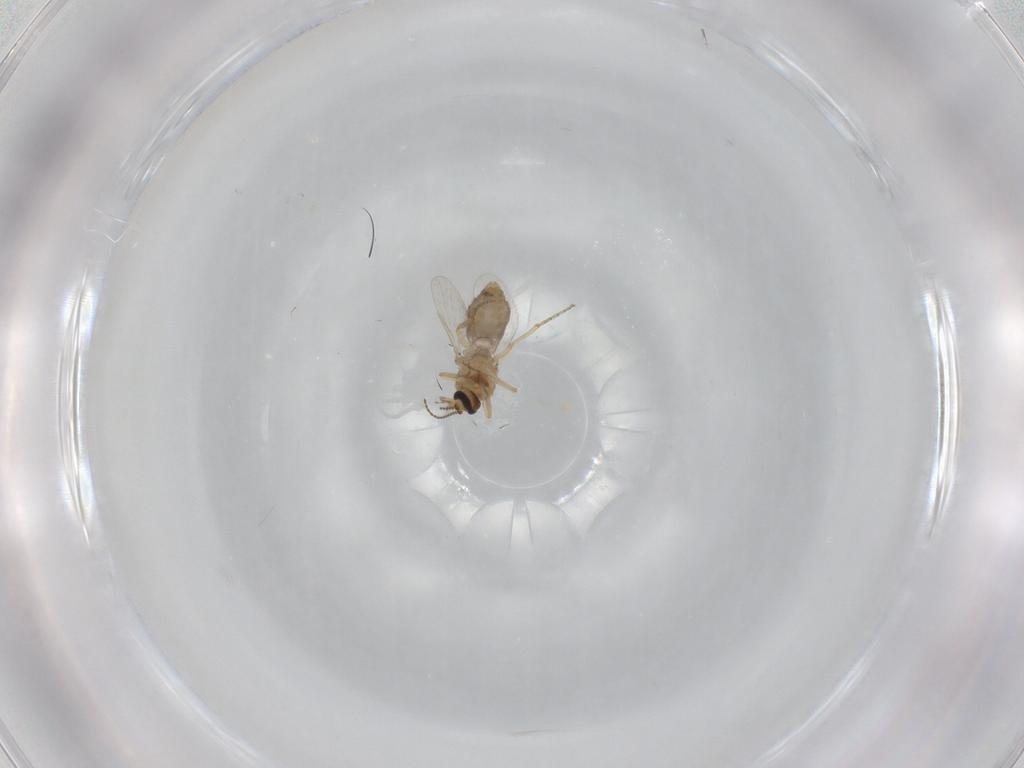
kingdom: Animalia
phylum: Arthropoda
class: Insecta
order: Diptera
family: Ceratopogonidae
